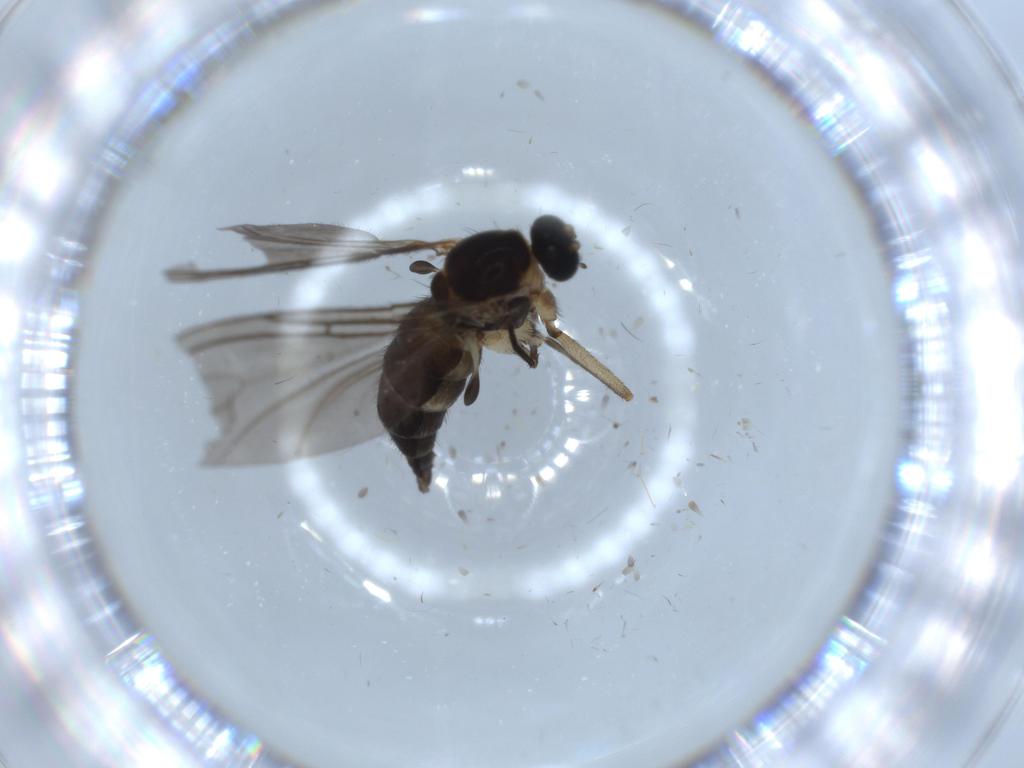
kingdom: Animalia
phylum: Arthropoda
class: Insecta
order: Diptera
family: Sciaridae
